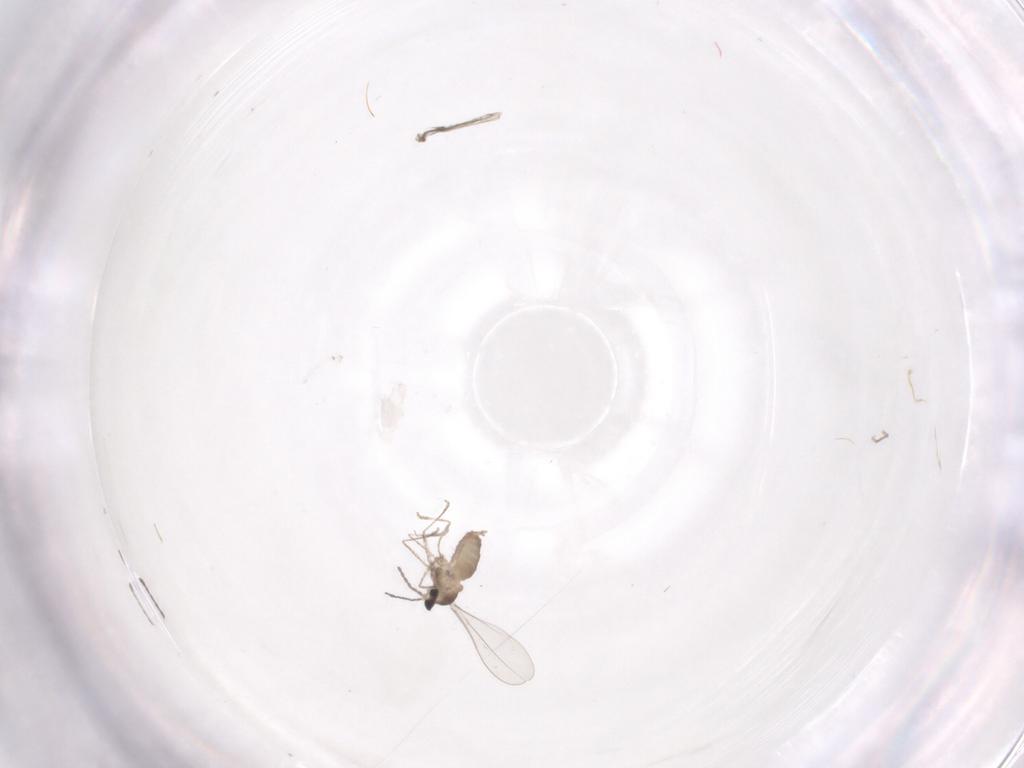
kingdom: Animalia
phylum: Arthropoda
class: Insecta
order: Diptera
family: Cecidomyiidae
